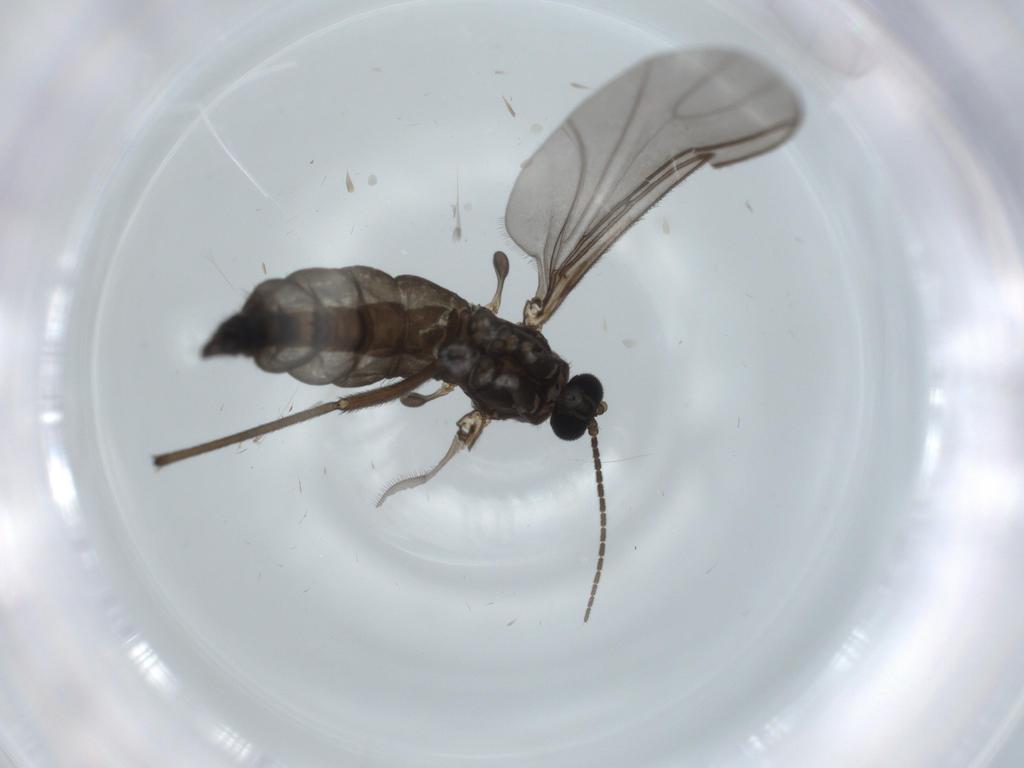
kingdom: Animalia
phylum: Arthropoda
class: Insecta
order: Diptera
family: Sciaridae
